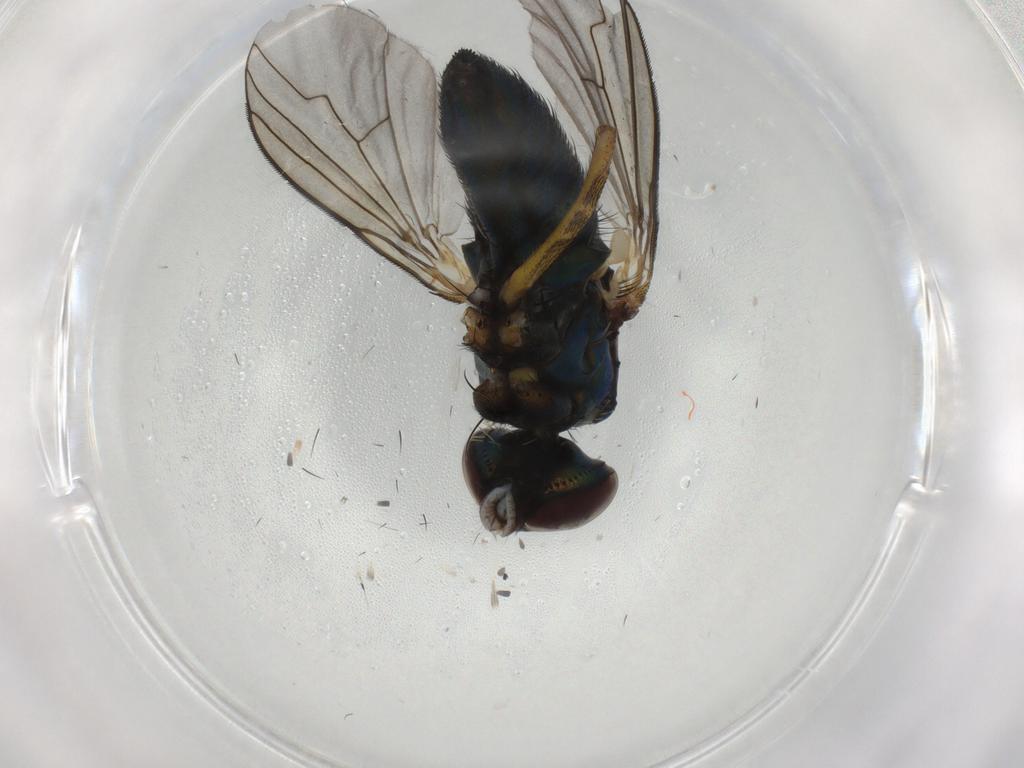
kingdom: Animalia
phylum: Arthropoda
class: Insecta
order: Diptera
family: Dolichopodidae
